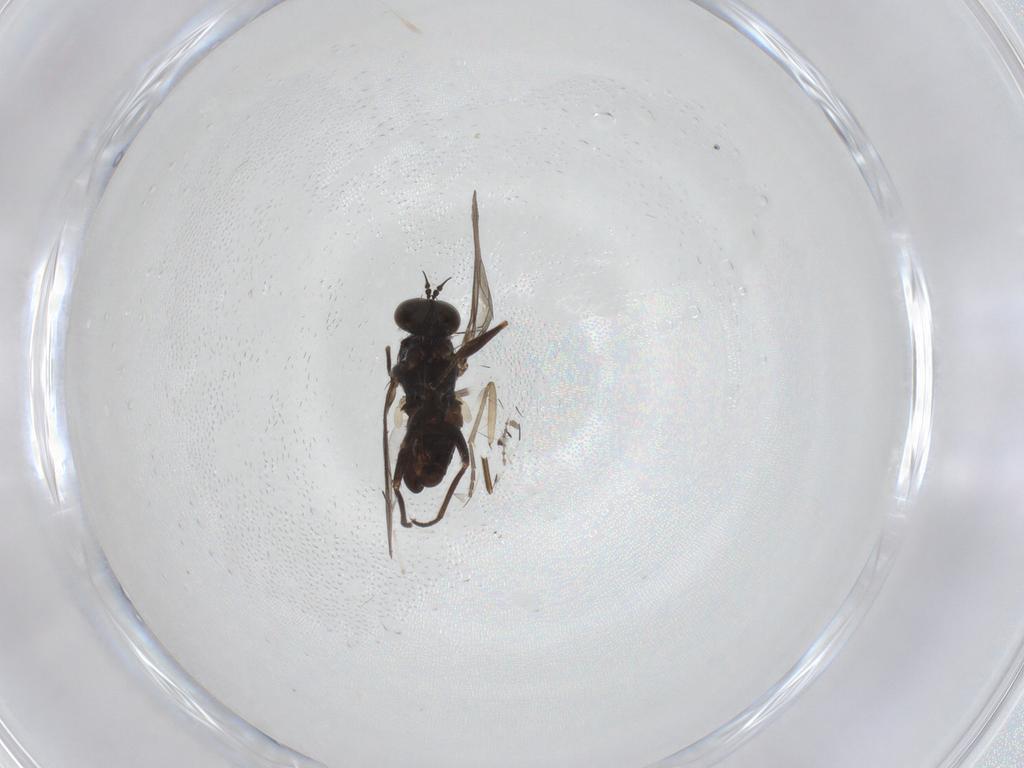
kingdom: Animalia
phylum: Arthropoda
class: Insecta
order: Diptera
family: Dolichopodidae
